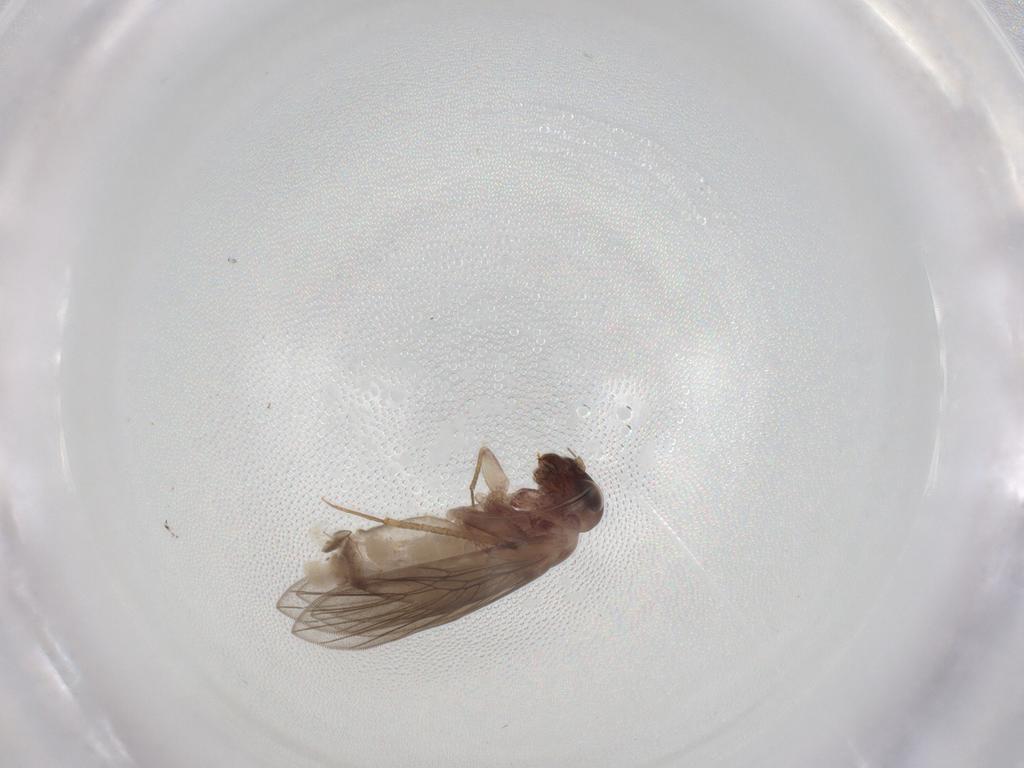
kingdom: Animalia
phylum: Arthropoda
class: Insecta
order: Psocodea
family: Lepidopsocidae
